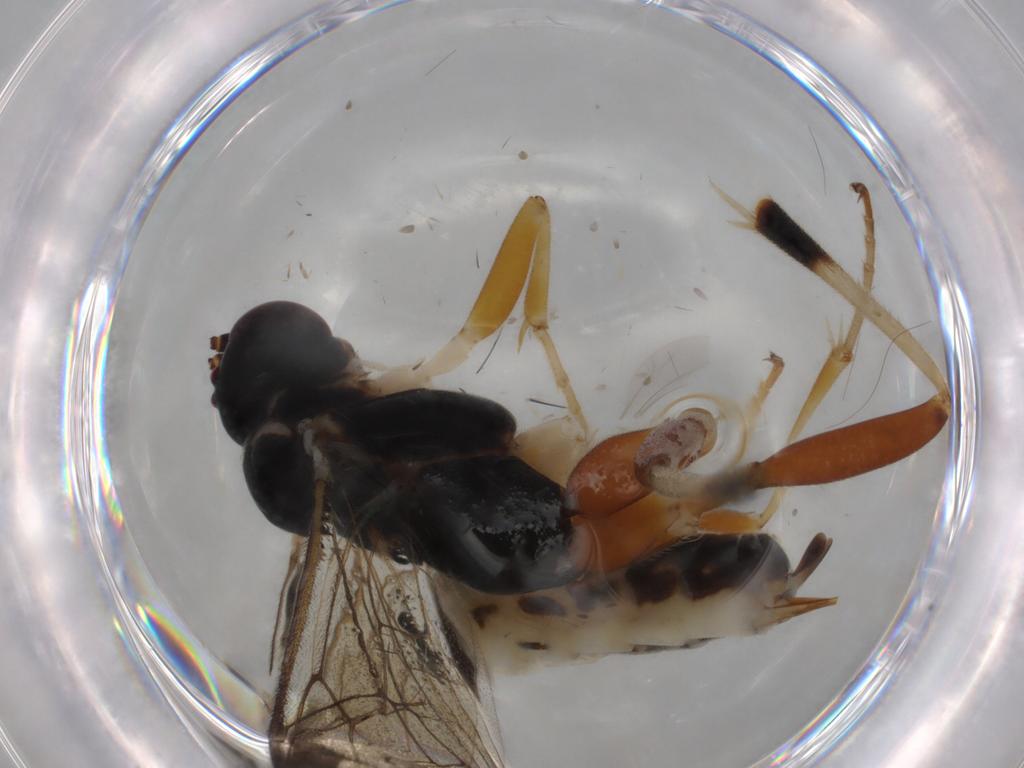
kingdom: Animalia
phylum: Arthropoda
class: Insecta
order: Hymenoptera
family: Ichneumonidae
